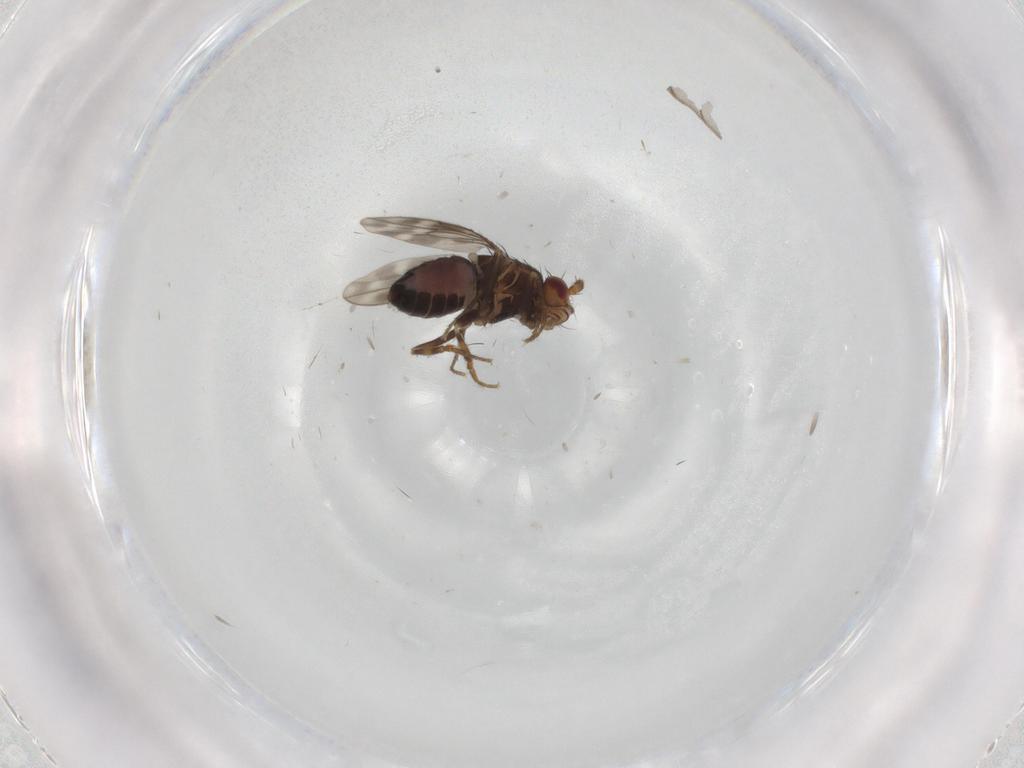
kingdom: Animalia
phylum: Arthropoda
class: Insecta
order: Diptera
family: Sphaeroceridae
